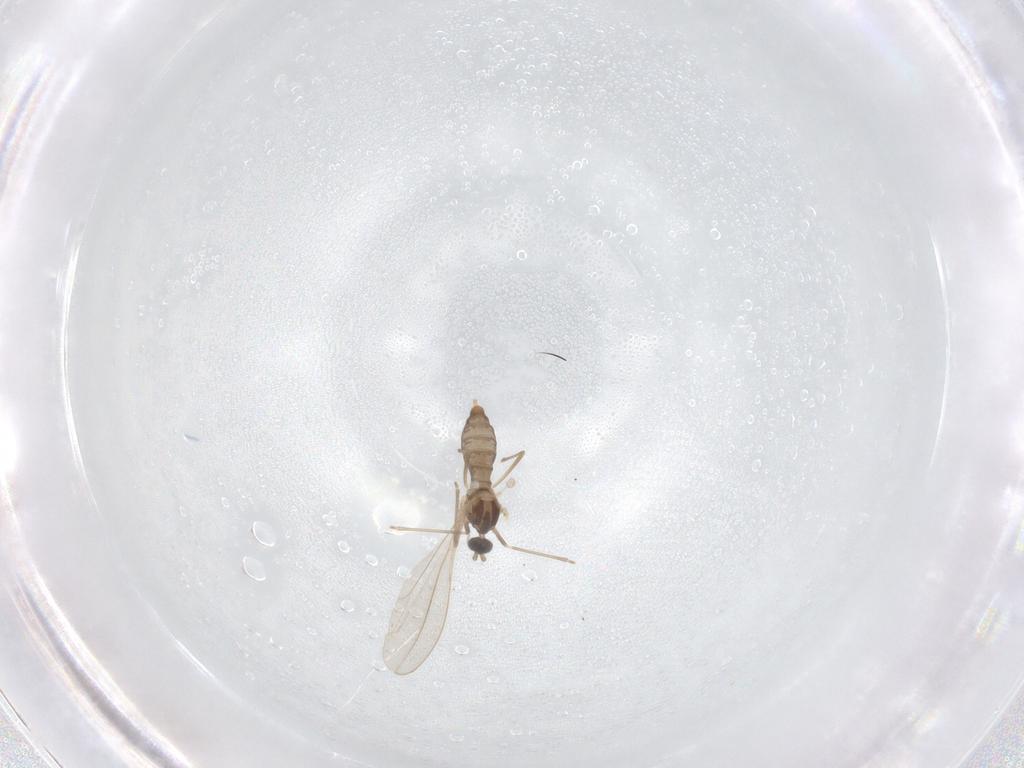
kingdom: Animalia
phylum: Arthropoda
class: Insecta
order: Diptera
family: Cecidomyiidae
